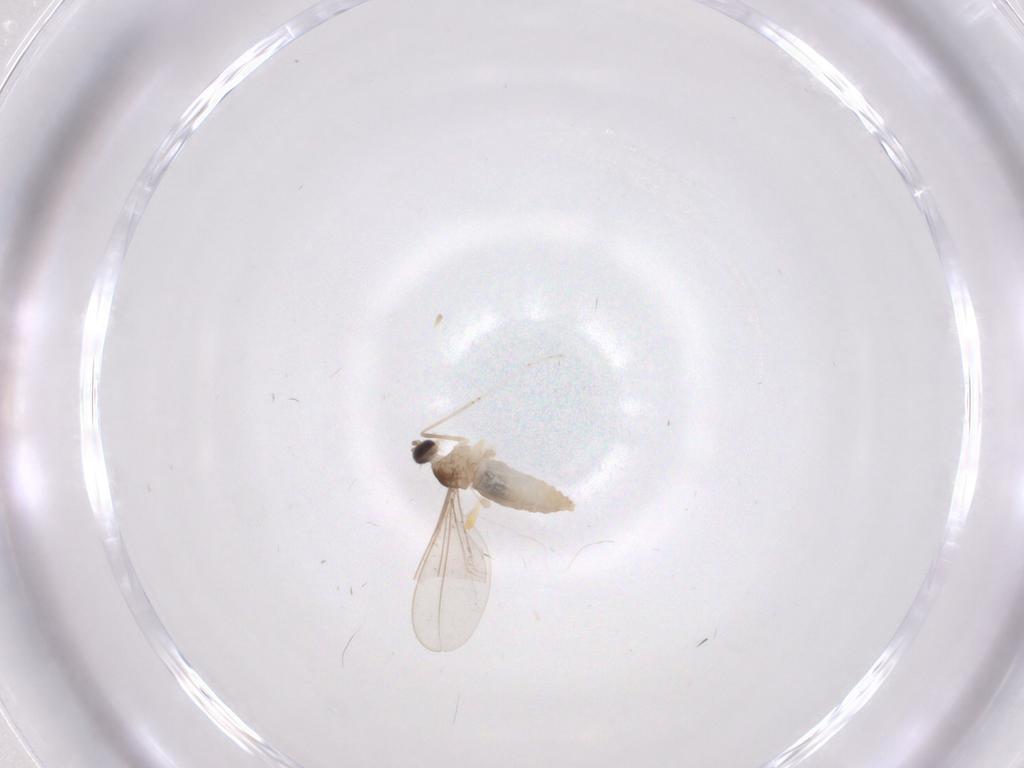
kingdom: Animalia
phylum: Arthropoda
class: Insecta
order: Diptera
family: Cecidomyiidae
